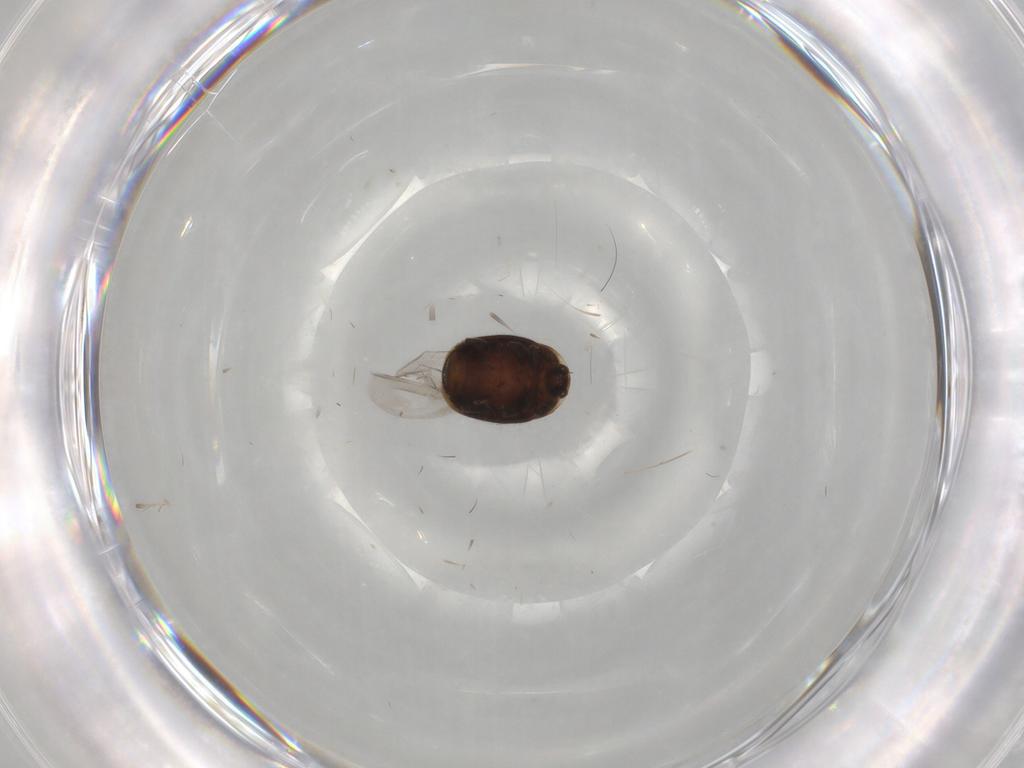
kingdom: Animalia
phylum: Arthropoda
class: Insecta
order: Coleoptera
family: Corylophidae
